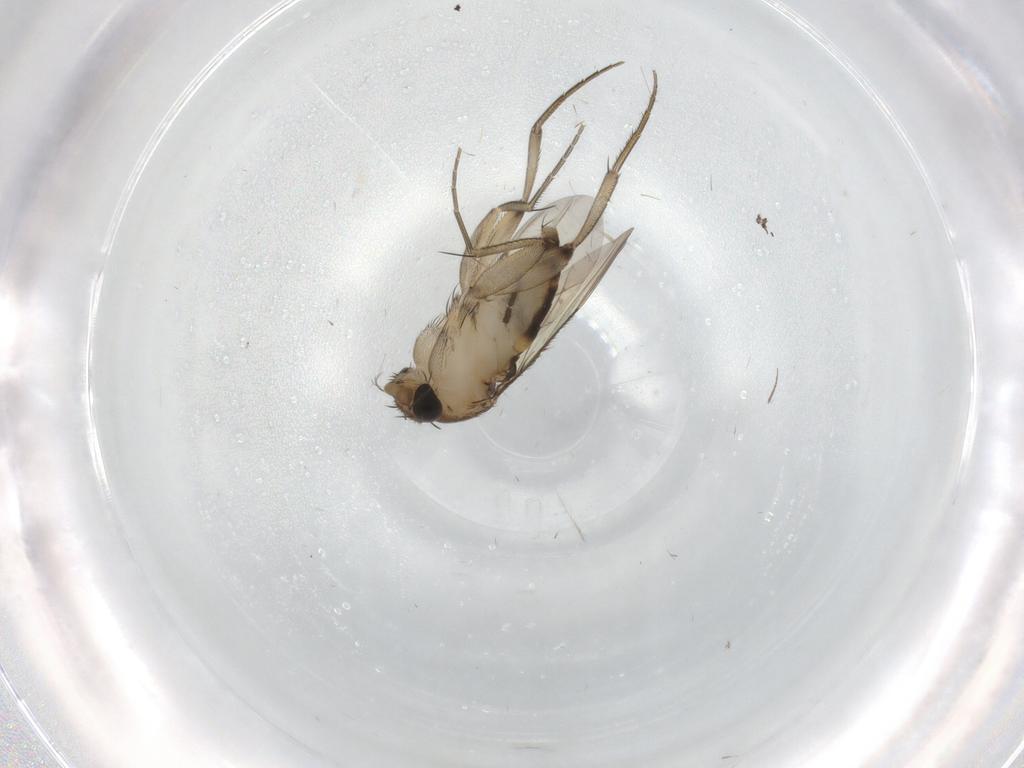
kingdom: Animalia
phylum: Arthropoda
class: Insecta
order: Diptera
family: Phoridae
